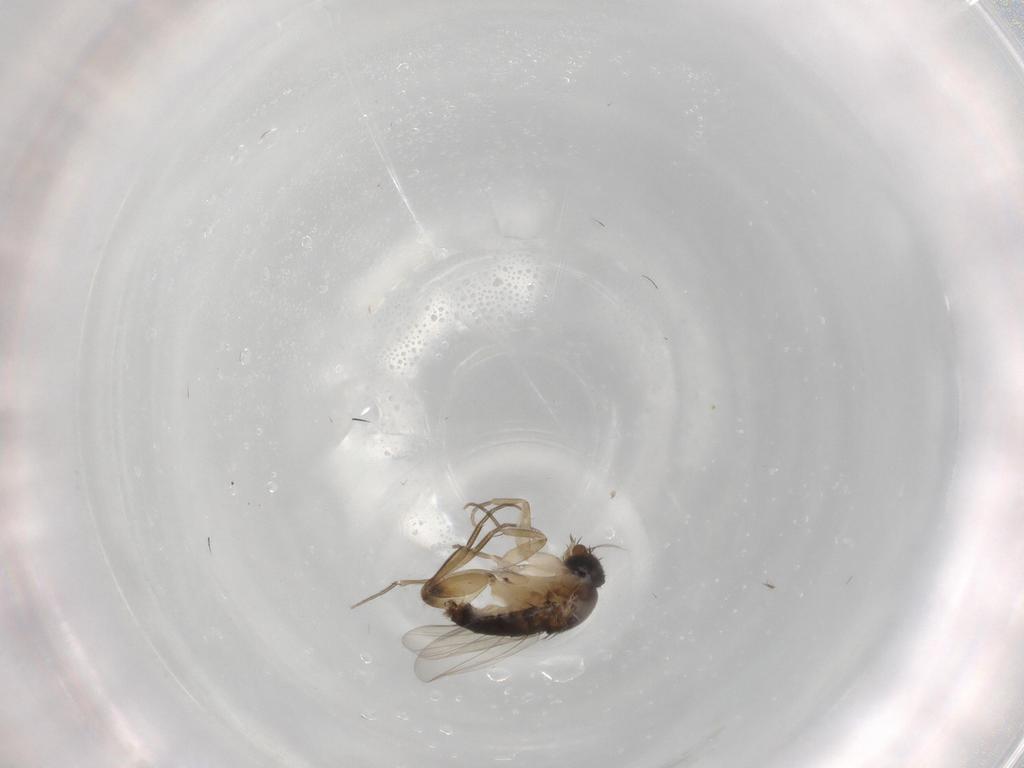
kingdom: Animalia
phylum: Arthropoda
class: Insecta
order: Diptera
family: Phoridae
